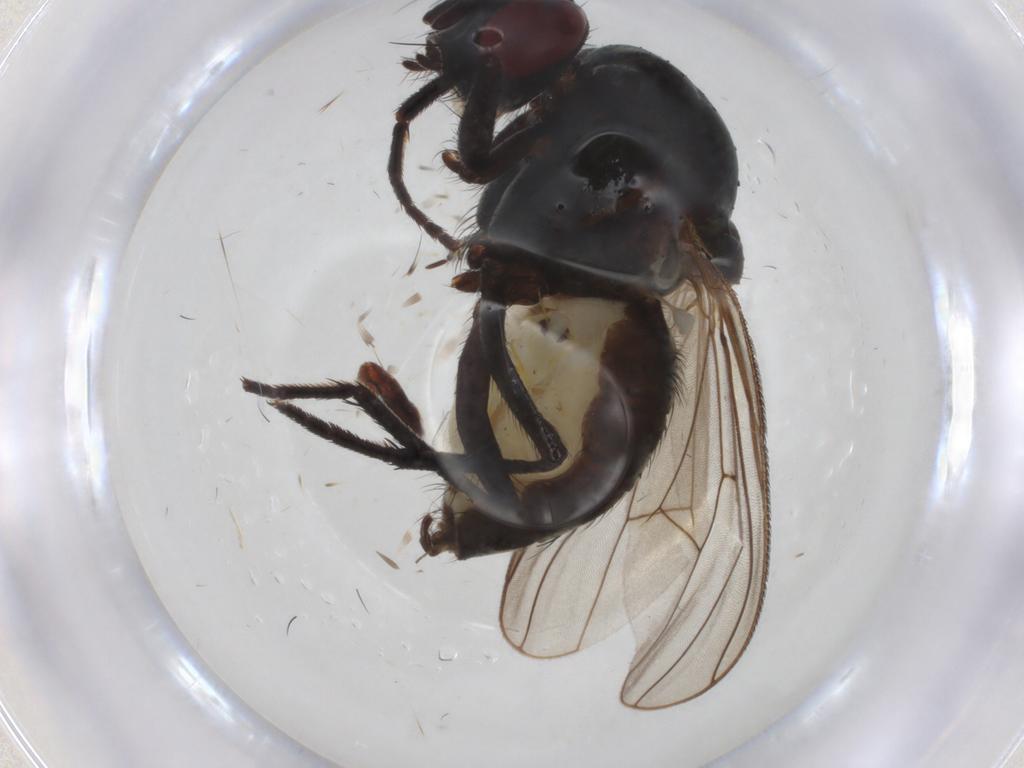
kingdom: Animalia
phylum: Arthropoda
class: Insecta
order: Diptera
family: Anthomyiidae
